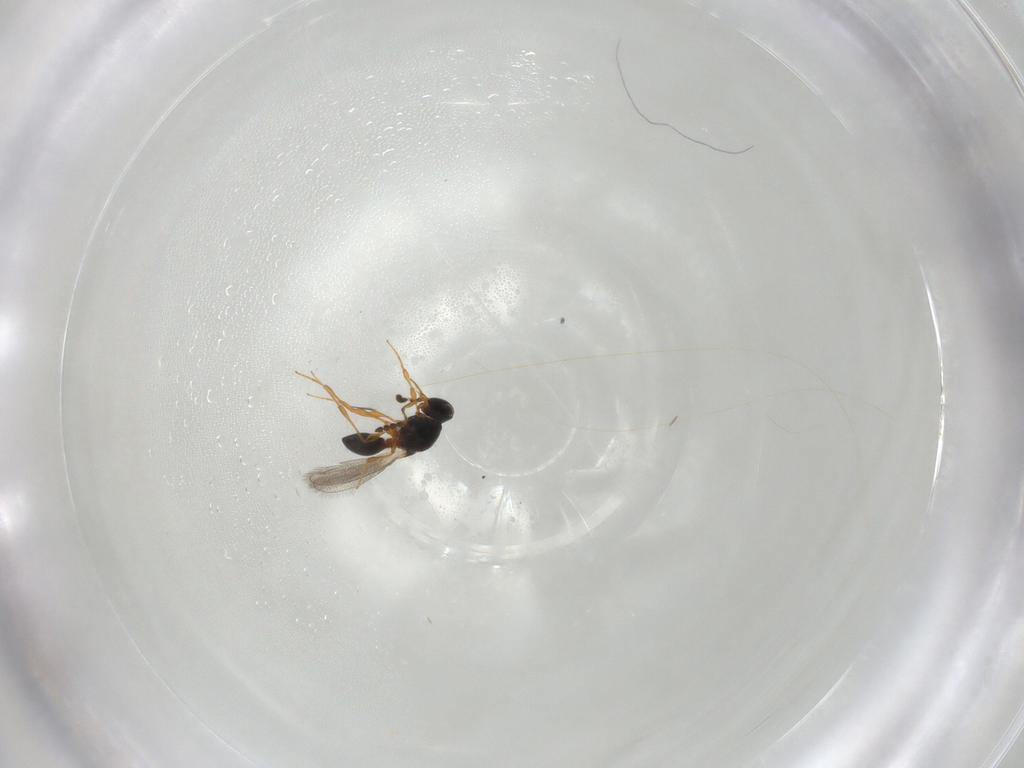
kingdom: Animalia
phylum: Arthropoda
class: Insecta
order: Hymenoptera
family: Platygastridae
